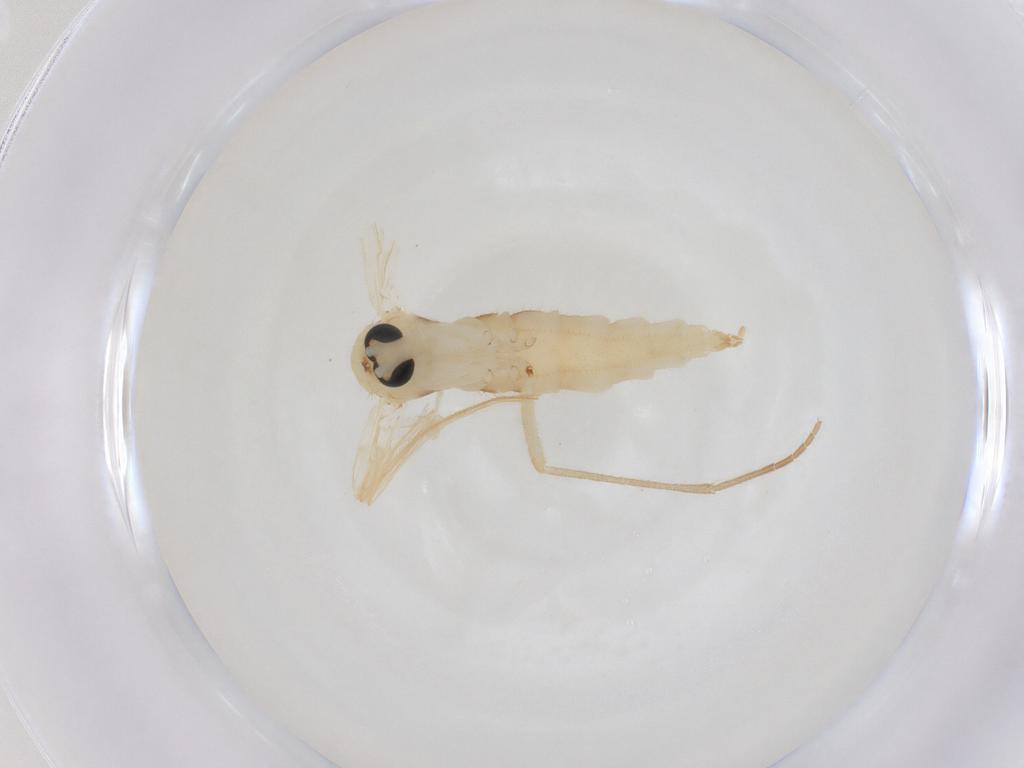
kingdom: Animalia
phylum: Arthropoda
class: Insecta
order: Diptera
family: Sciaridae
